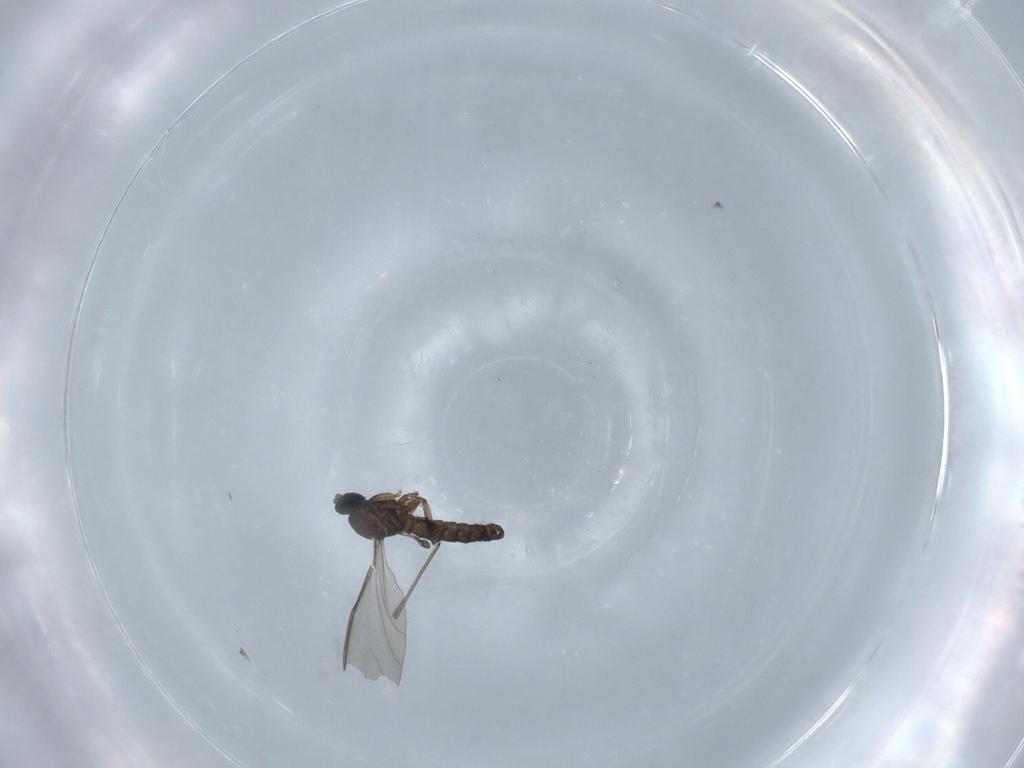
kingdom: Animalia
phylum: Arthropoda
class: Insecta
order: Diptera
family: Sciaridae
